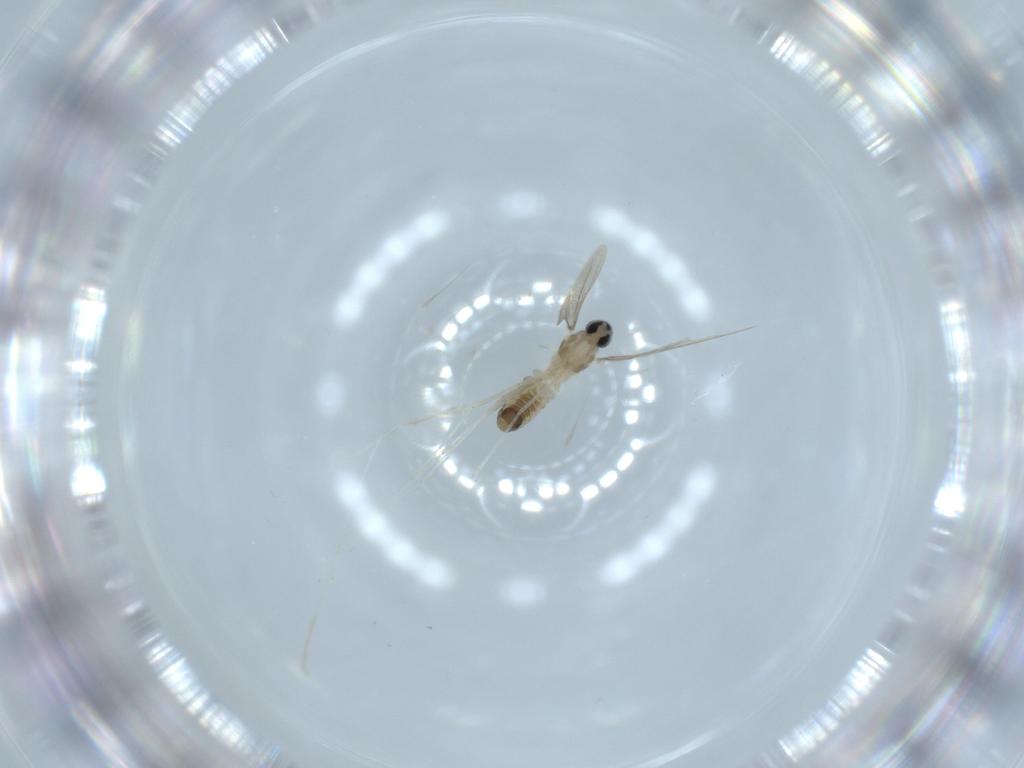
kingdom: Animalia
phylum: Arthropoda
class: Insecta
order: Diptera
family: Cecidomyiidae
